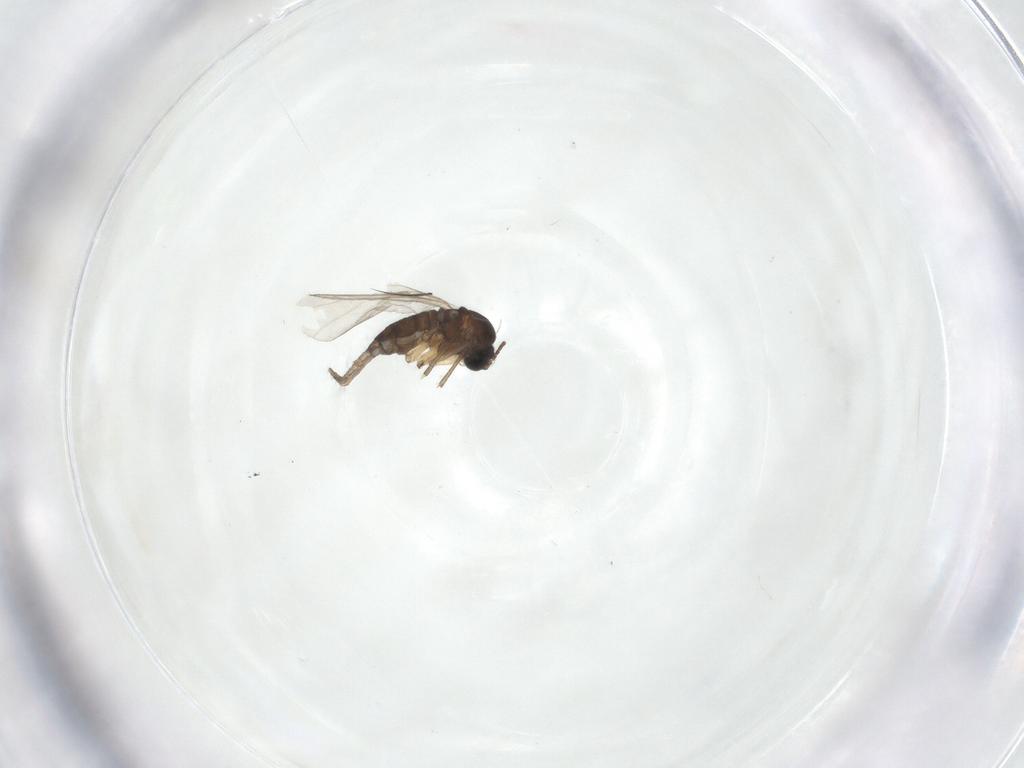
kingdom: Animalia
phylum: Arthropoda
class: Insecta
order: Diptera
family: Sciaridae
